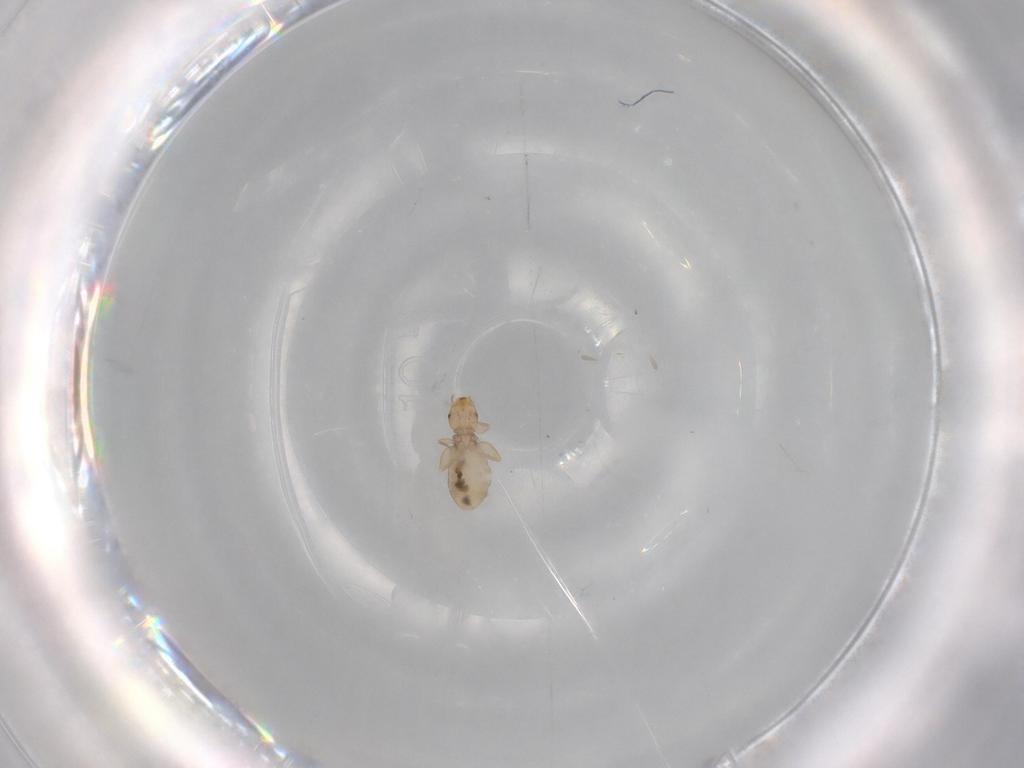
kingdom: Animalia
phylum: Arthropoda
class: Insecta
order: Psocodea
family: Liposcelididae
